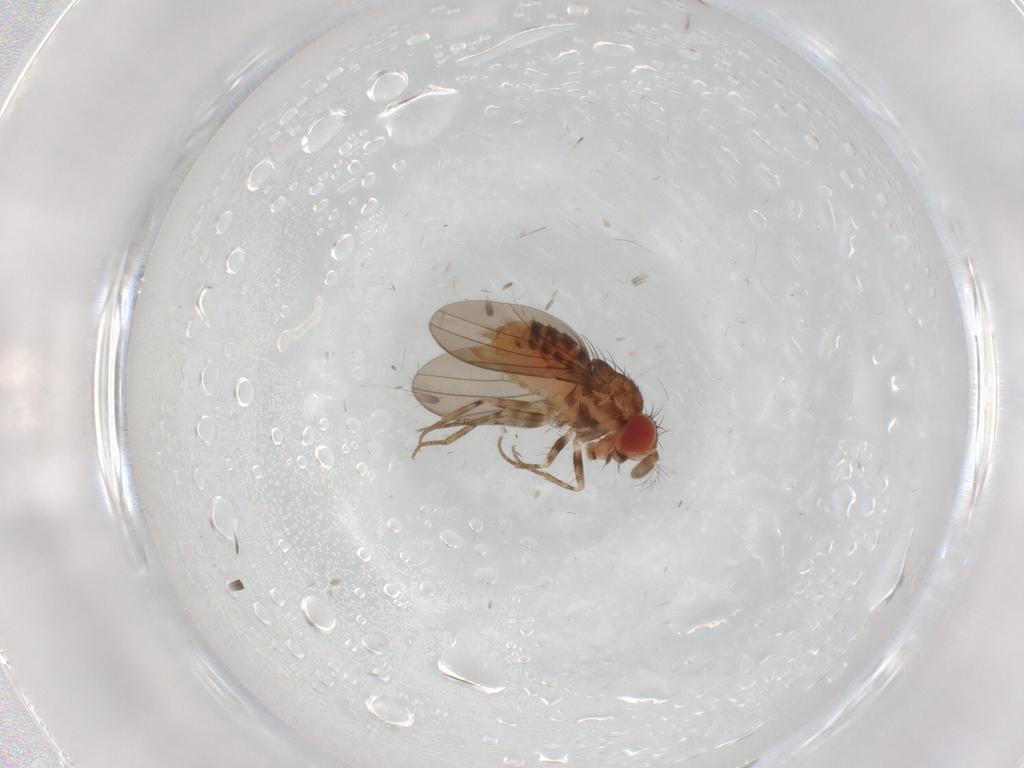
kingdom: Animalia
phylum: Arthropoda
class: Insecta
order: Diptera
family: Drosophilidae
